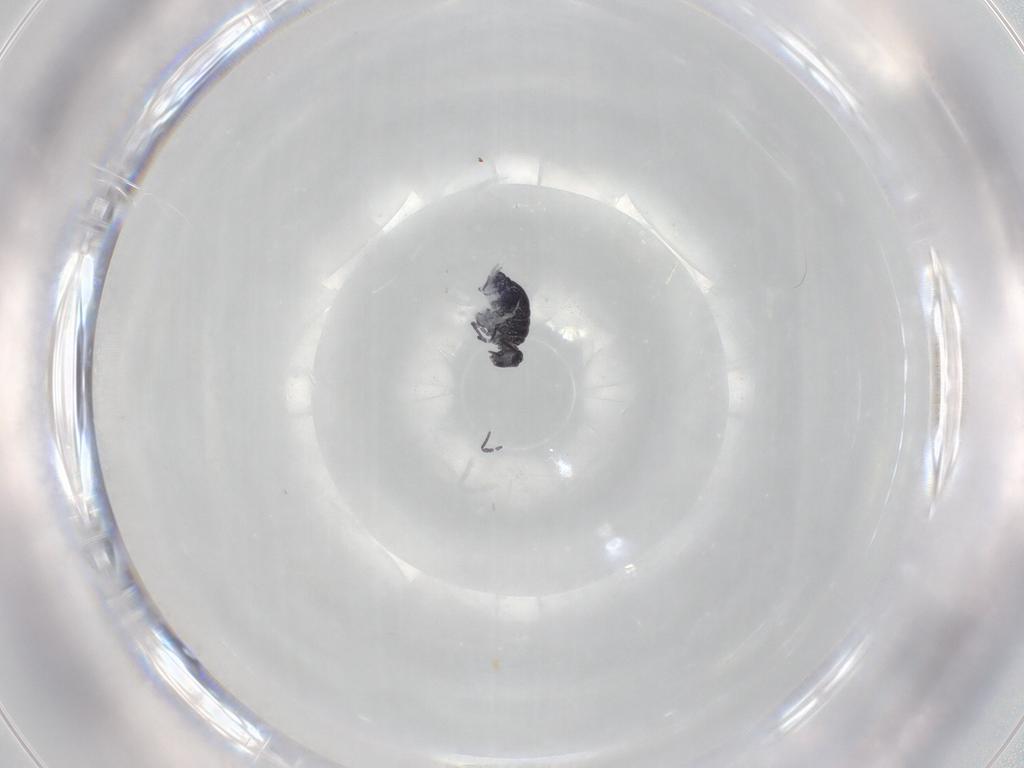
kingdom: Animalia
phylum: Arthropoda
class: Collembola
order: Symphypleona
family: Katiannidae
